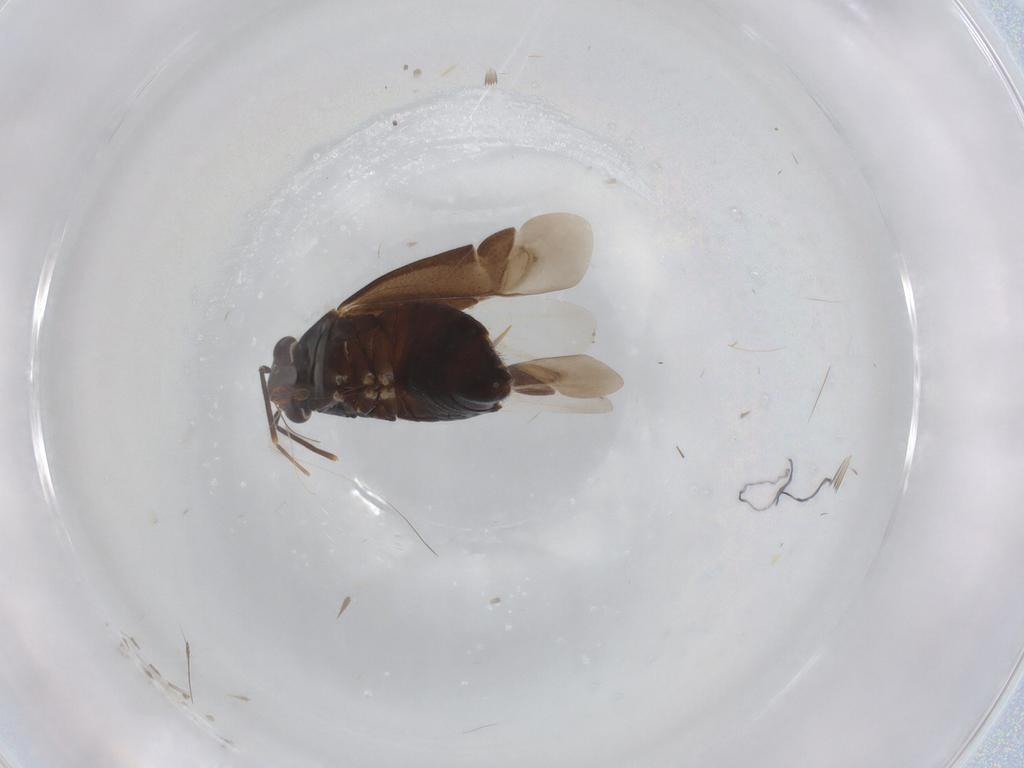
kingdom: Animalia
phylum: Arthropoda
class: Insecta
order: Hemiptera
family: Miridae
